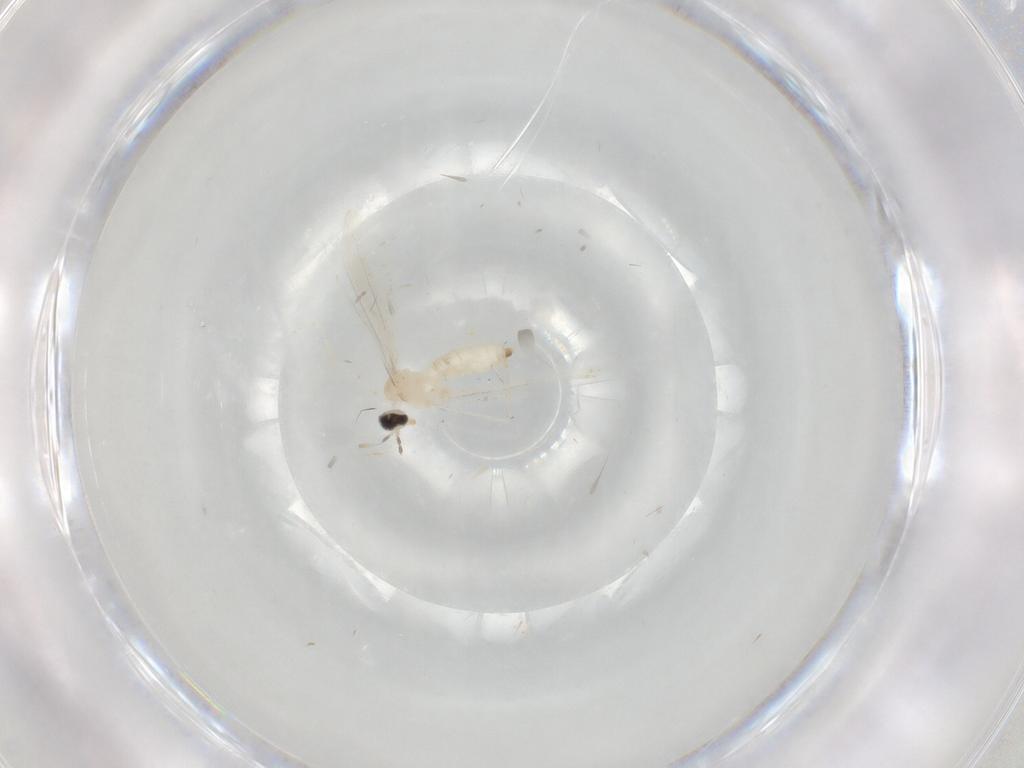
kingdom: Animalia
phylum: Arthropoda
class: Insecta
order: Diptera
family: Cecidomyiidae
